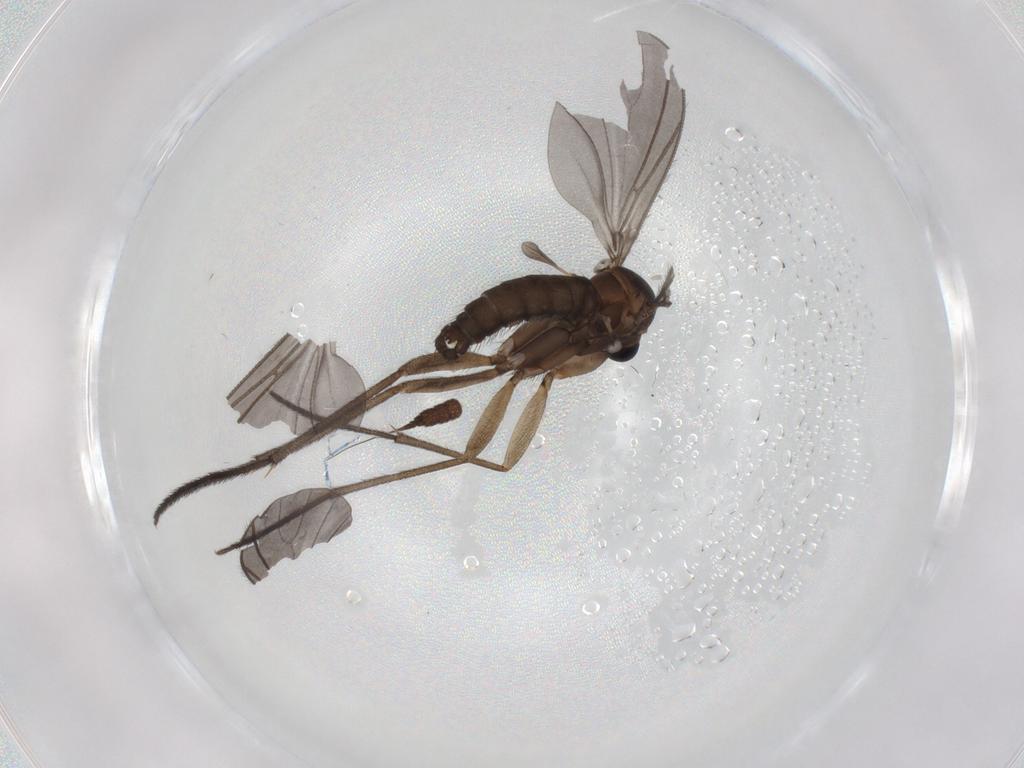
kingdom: Animalia
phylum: Arthropoda
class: Insecta
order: Diptera
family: Sciaridae
